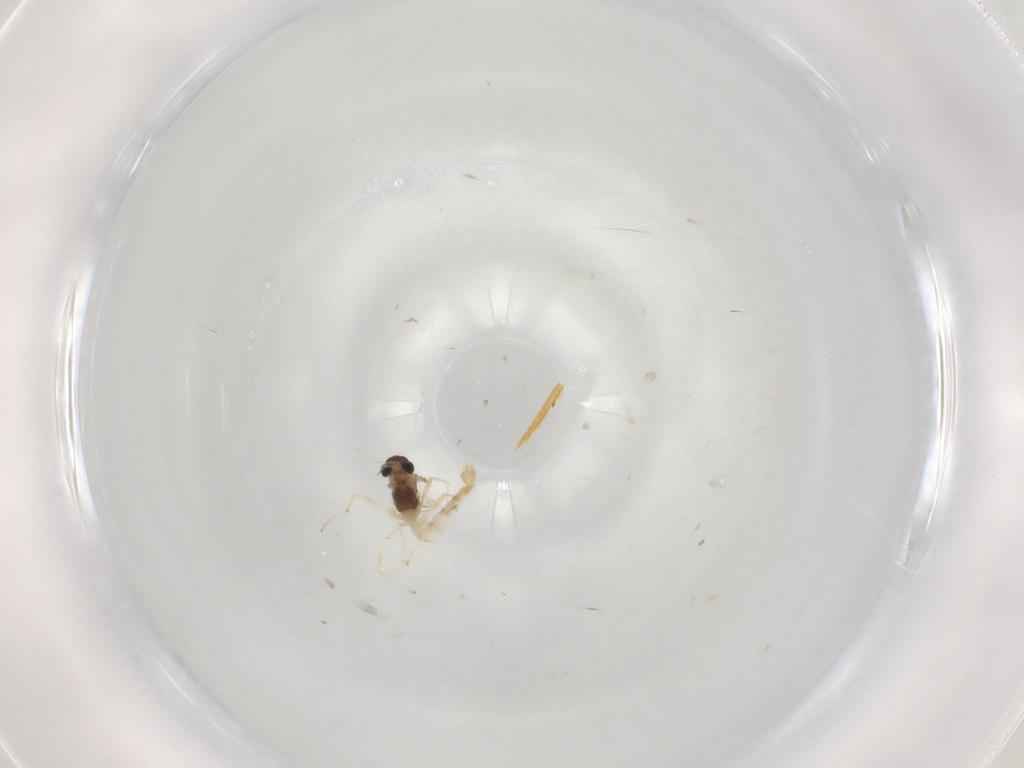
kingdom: Animalia
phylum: Arthropoda
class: Insecta
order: Diptera
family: Chironomidae
